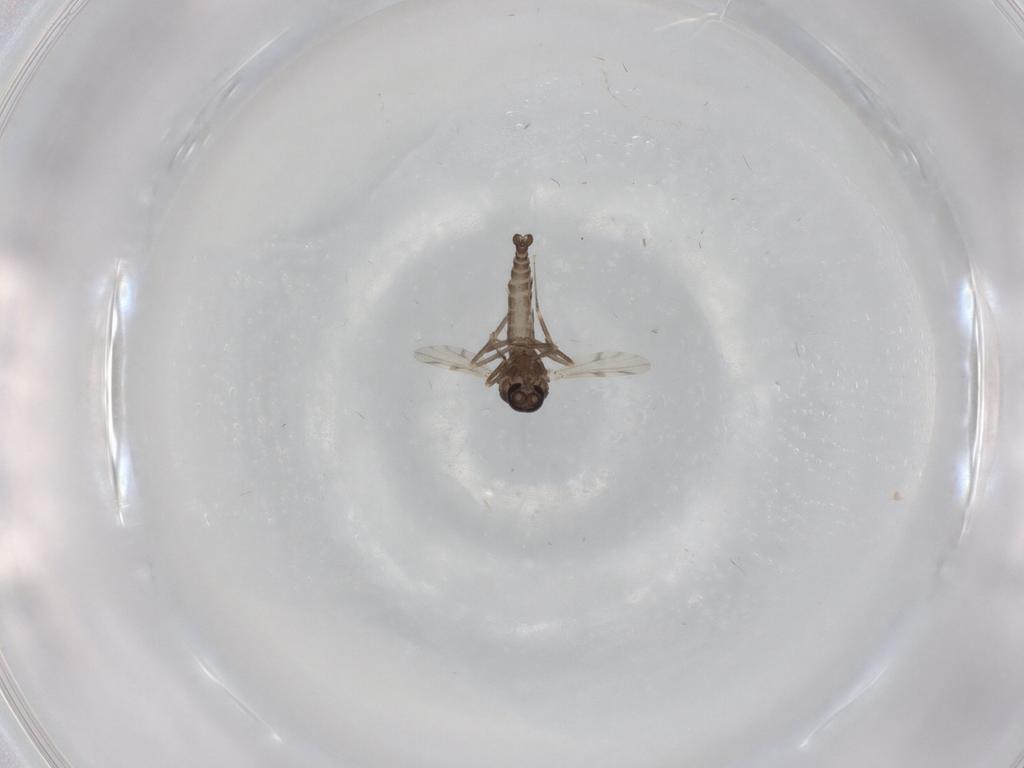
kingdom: Animalia
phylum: Arthropoda
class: Insecta
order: Diptera
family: Ceratopogonidae
